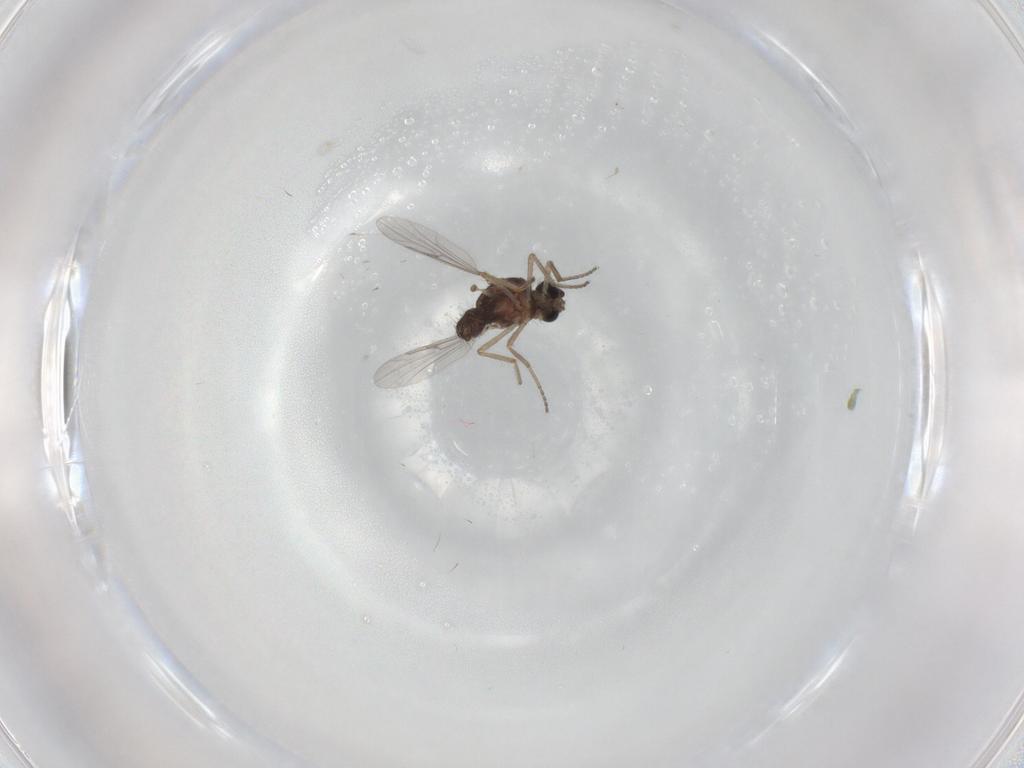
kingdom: Animalia
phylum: Arthropoda
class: Insecta
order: Diptera
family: Ceratopogonidae
